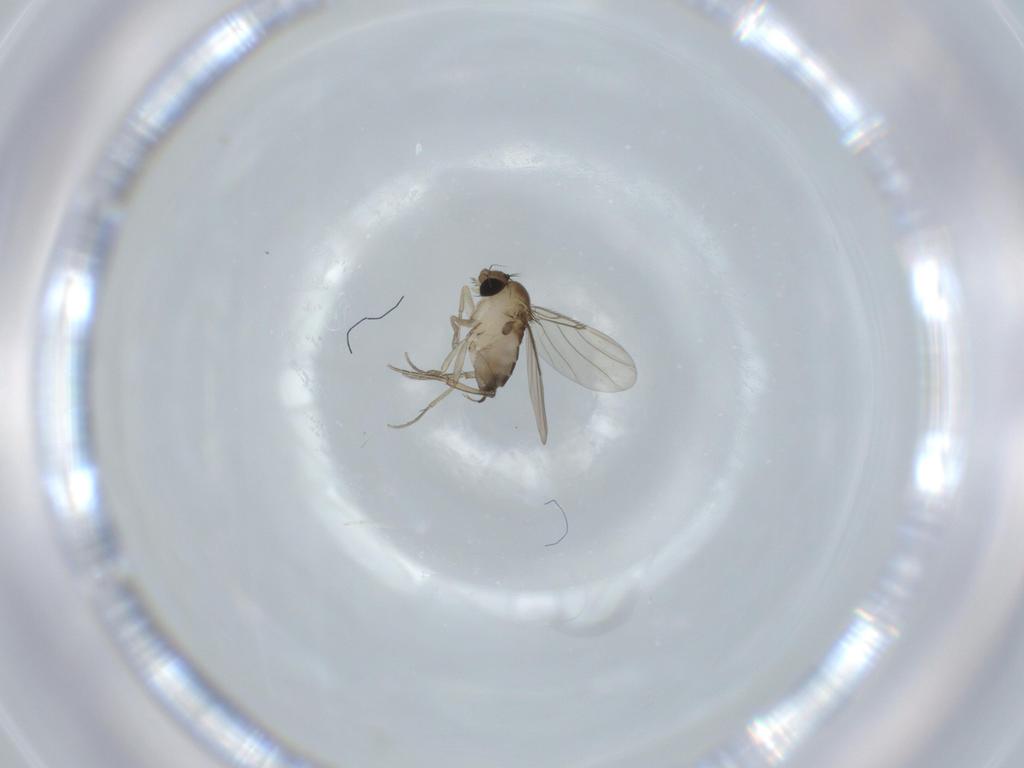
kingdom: Animalia
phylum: Arthropoda
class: Insecta
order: Diptera
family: Phoridae
